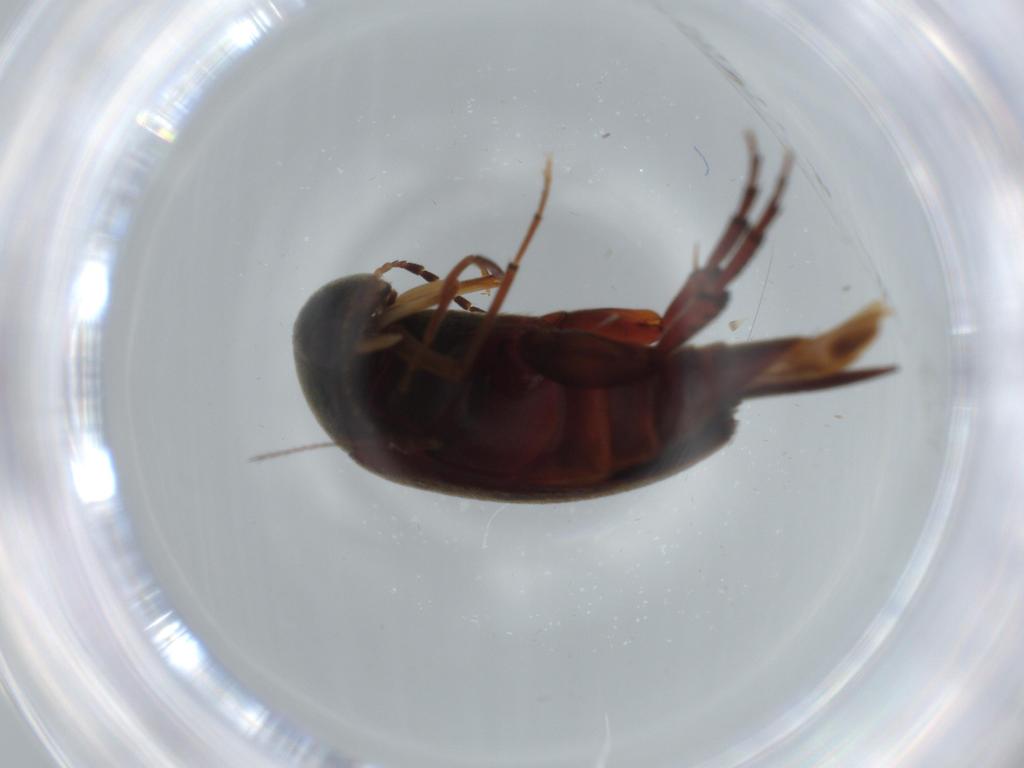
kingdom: Animalia
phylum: Arthropoda
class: Insecta
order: Coleoptera
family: Mordellidae
